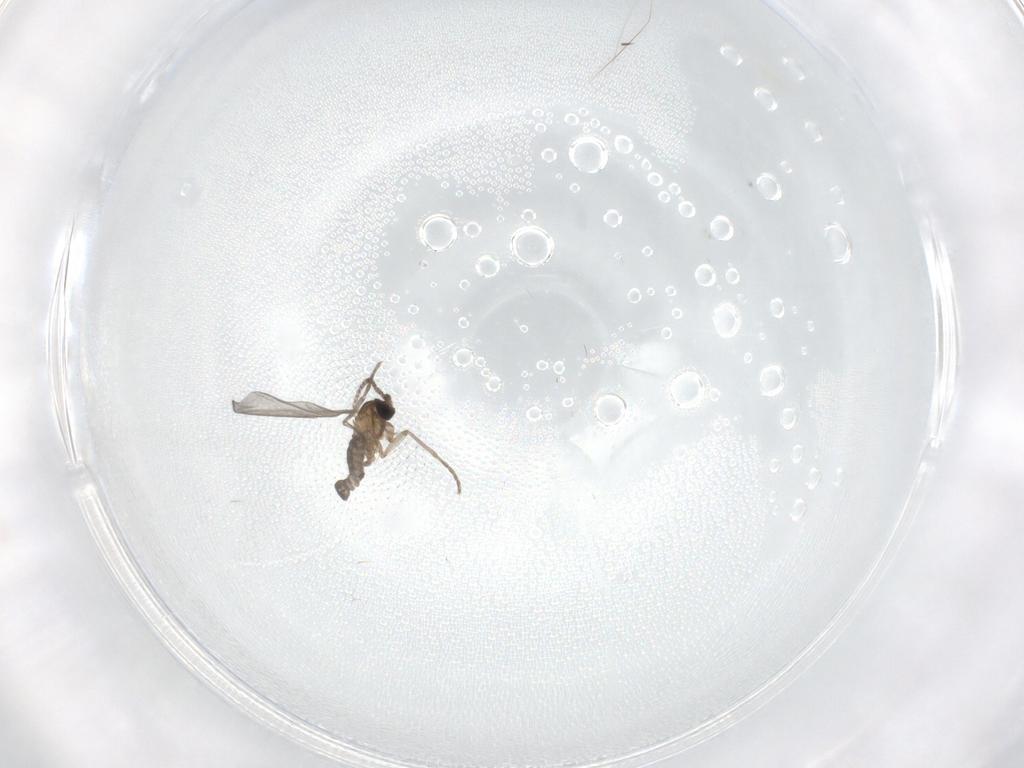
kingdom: Animalia
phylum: Arthropoda
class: Insecta
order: Diptera
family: Sciaridae
